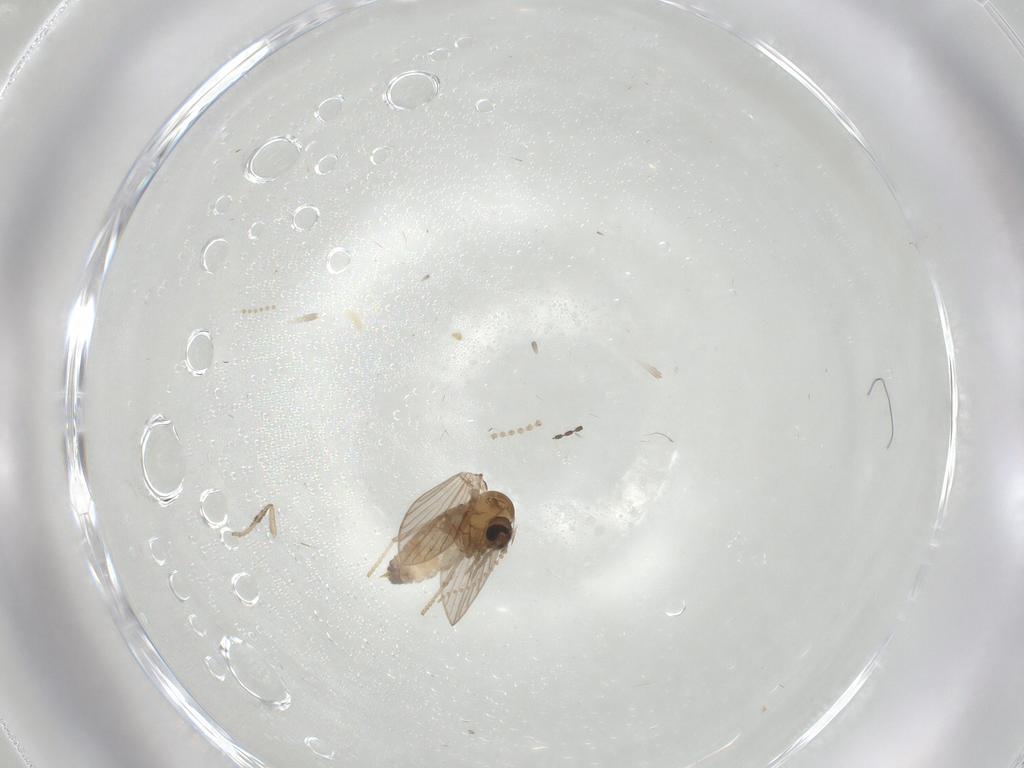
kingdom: Animalia
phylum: Arthropoda
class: Insecta
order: Diptera
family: Psychodidae
